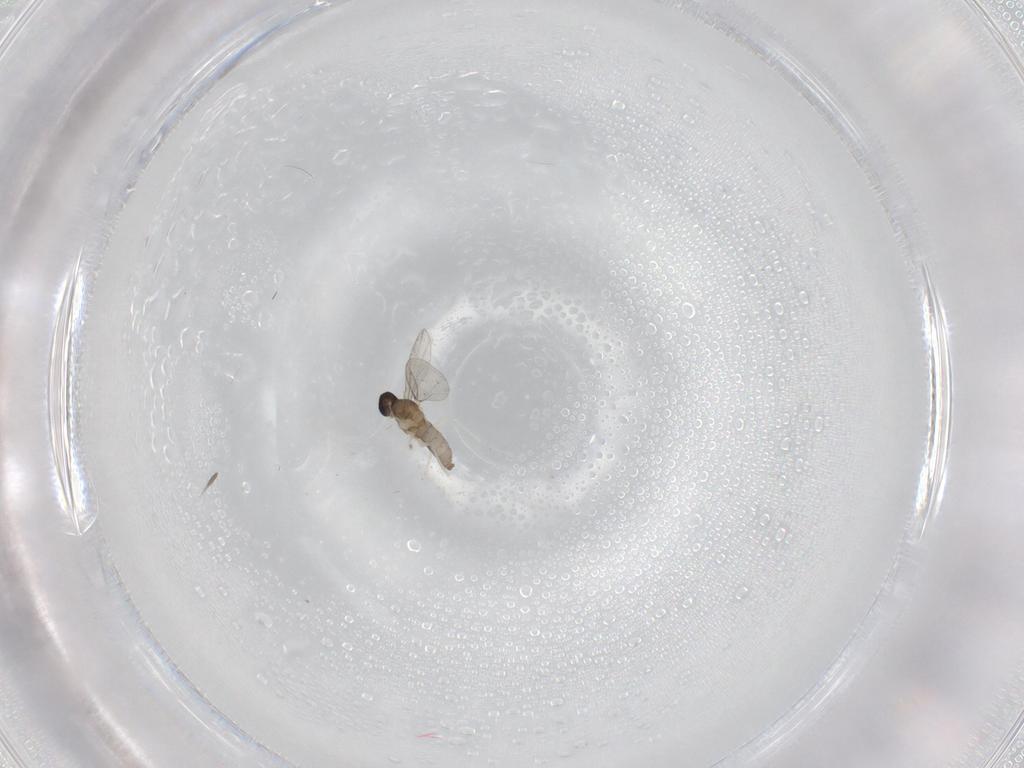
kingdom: Animalia
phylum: Arthropoda
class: Insecta
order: Diptera
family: Cecidomyiidae
